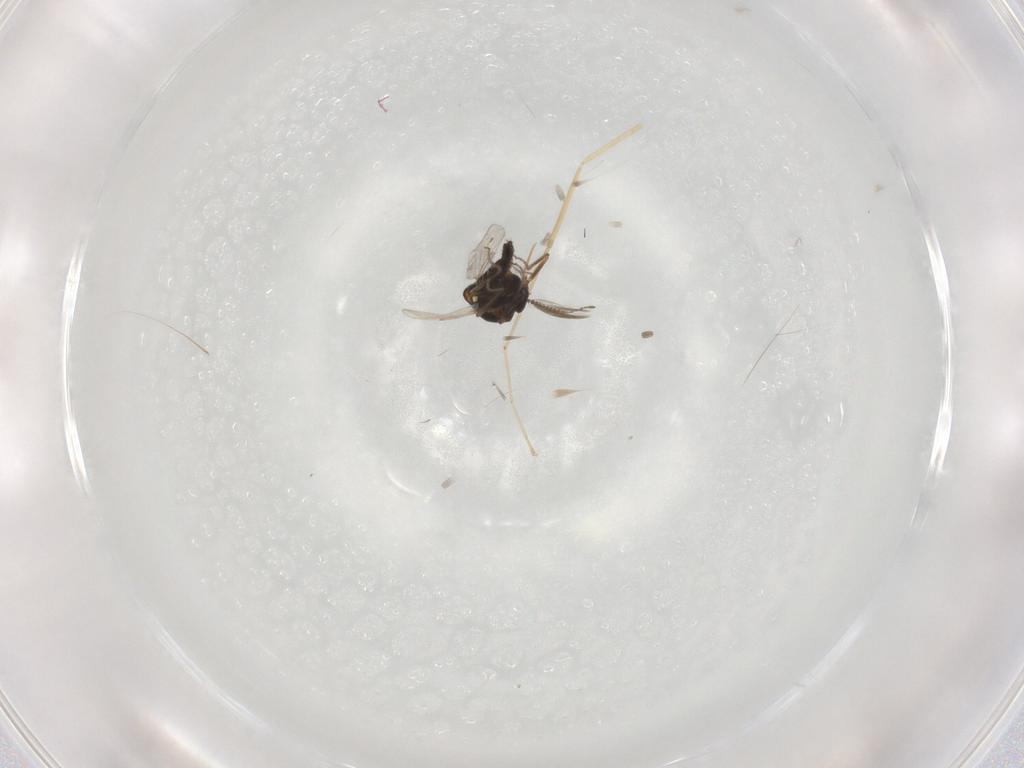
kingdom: Animalia
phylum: Arthropoda
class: Insecta
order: Diptera
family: Ceratopogonidae
